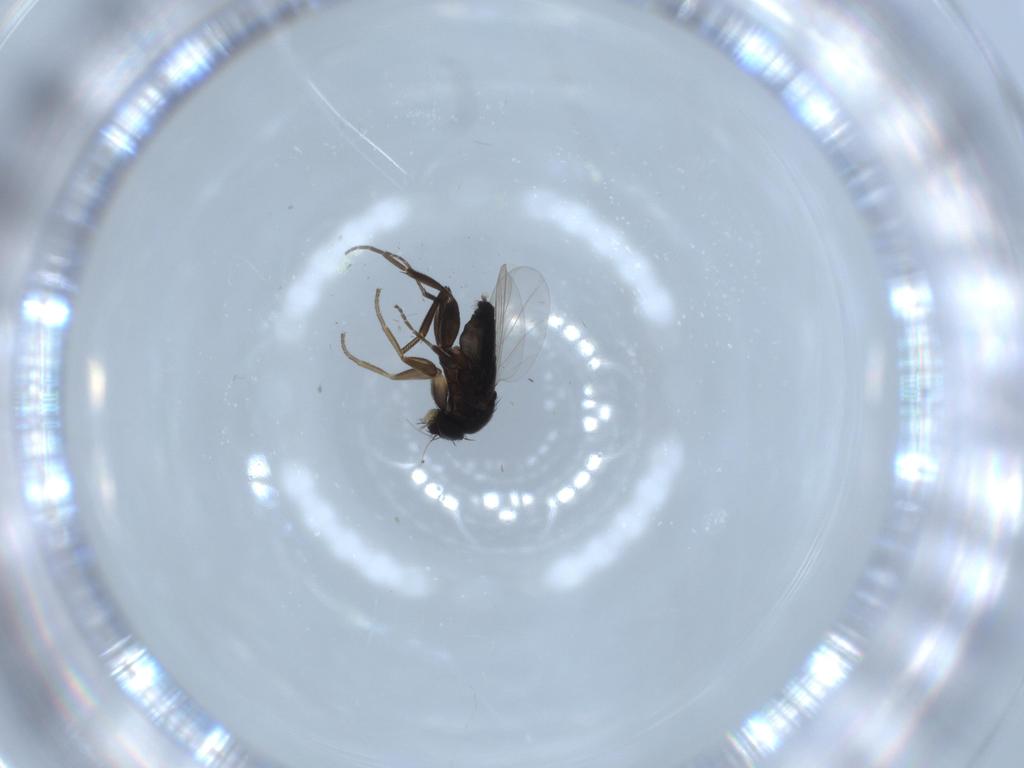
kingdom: Animalia
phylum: Arthropoda
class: Insecta
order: Diptera
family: Phoridae
